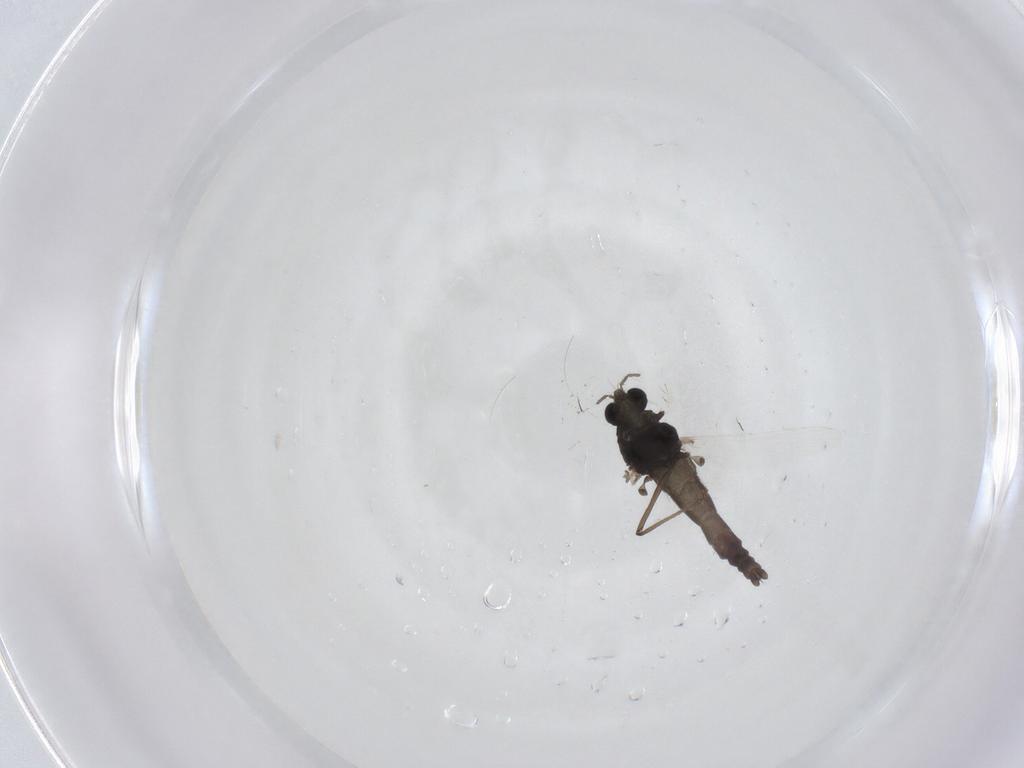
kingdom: Animalia
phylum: Arthropoda
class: Insecta
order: Diptera
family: Chironomidae
